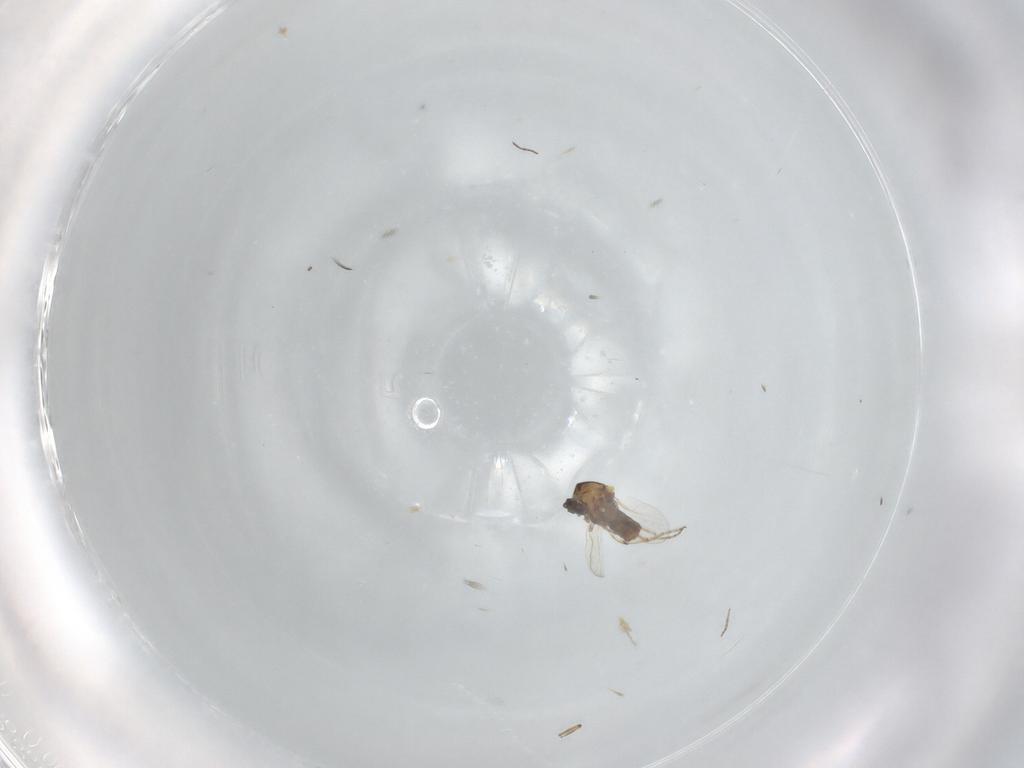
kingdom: Animalia
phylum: Arthropoda
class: Insecta
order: Diptera
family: Ceratopogonidae
